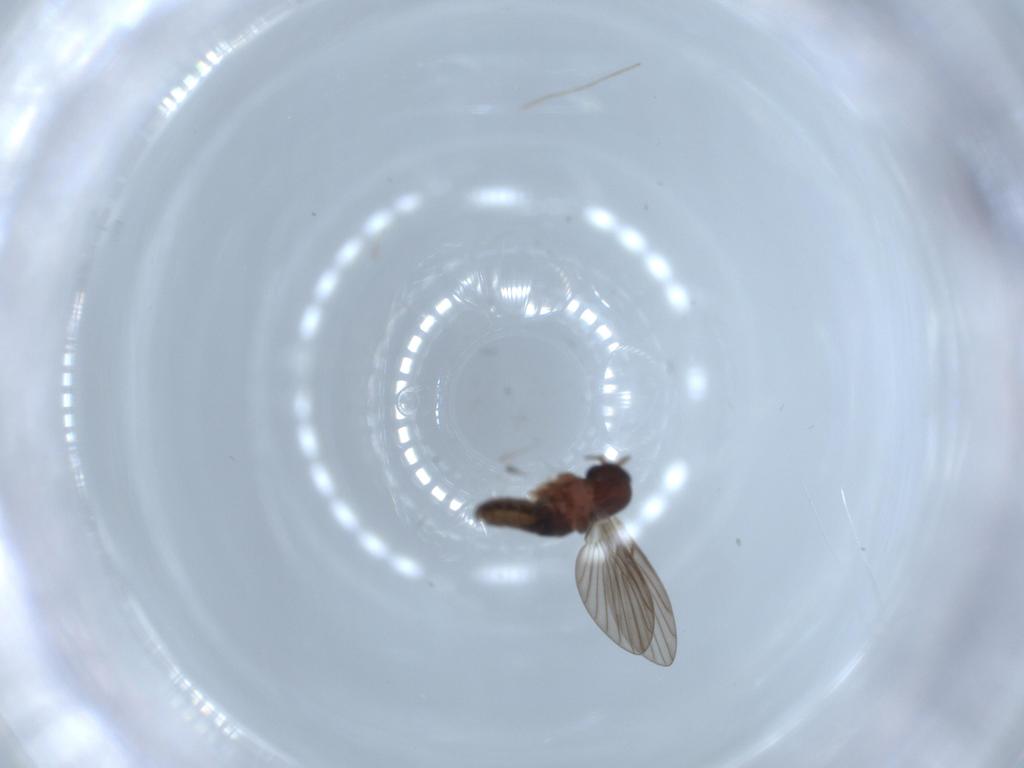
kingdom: Animalia
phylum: Arthropoda
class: Insecta
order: Diptera
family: Psychodidae
